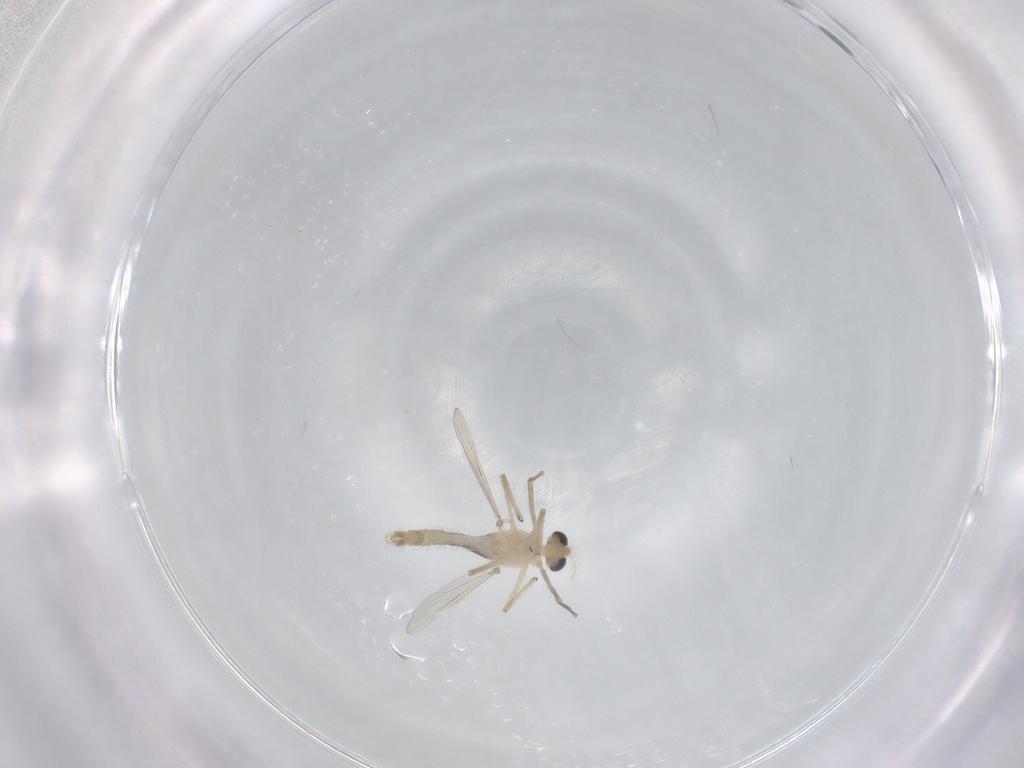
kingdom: Animalia
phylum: Arthropoda
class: Insecta
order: Diptera
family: Chironomidae
